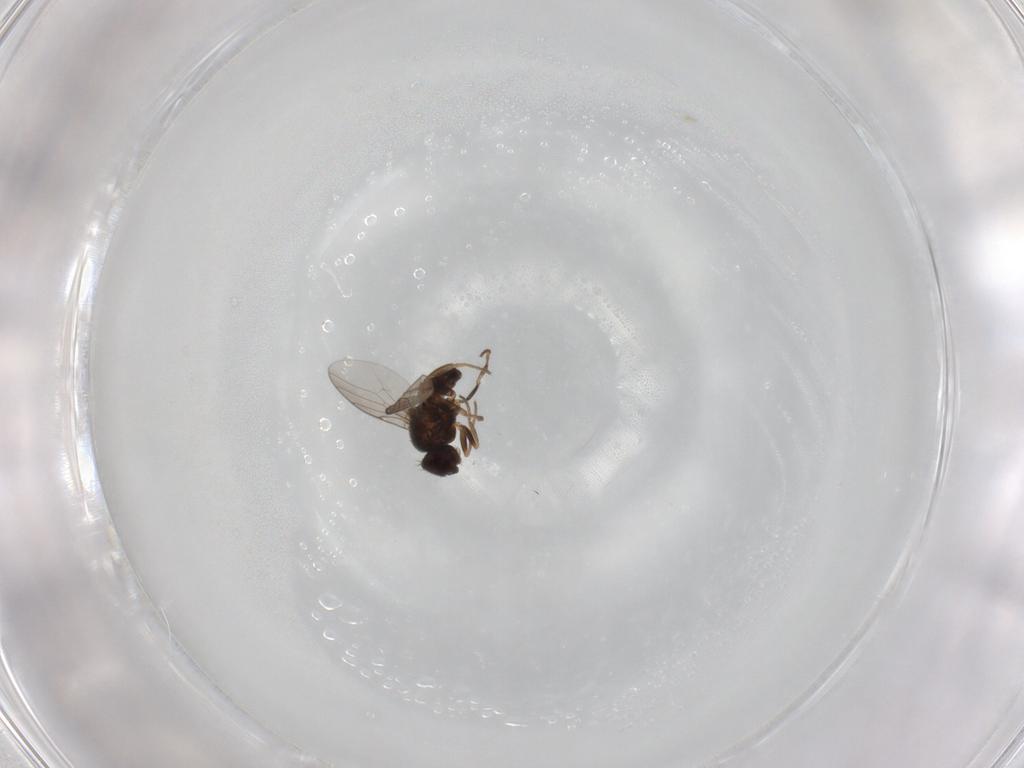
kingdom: Animalia
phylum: Arthropoda
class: Insecta
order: Diptera
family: Chloropidae
